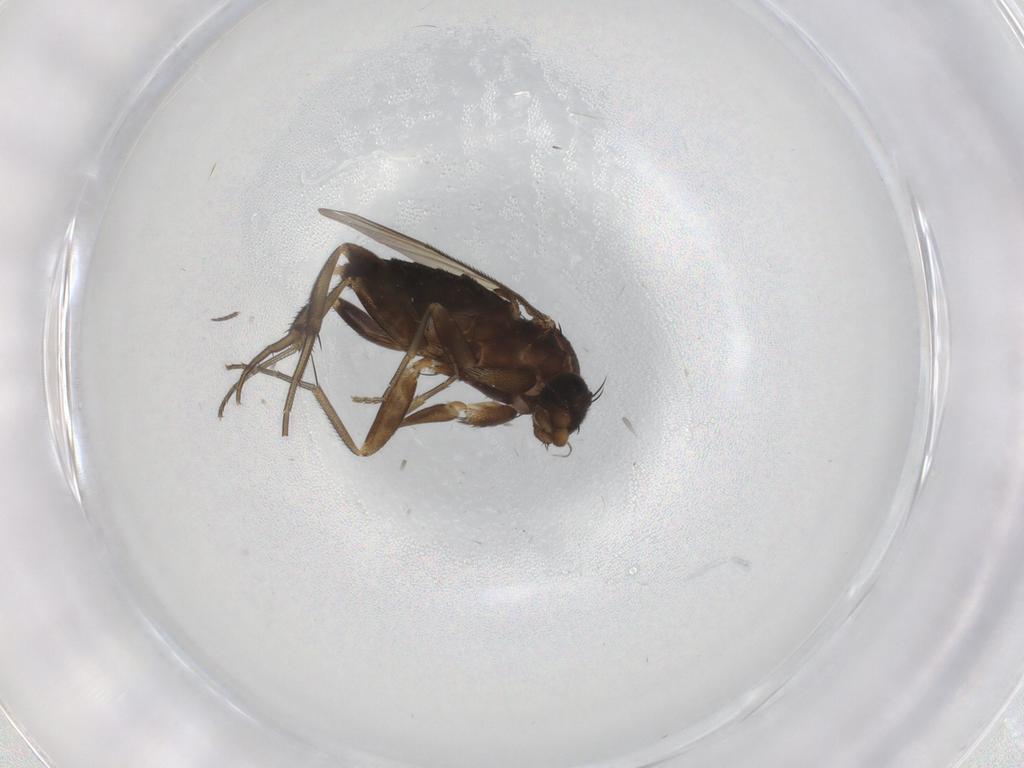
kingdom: Animalia
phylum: Arthropoda
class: Insecta
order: Diptera
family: Phoridae
